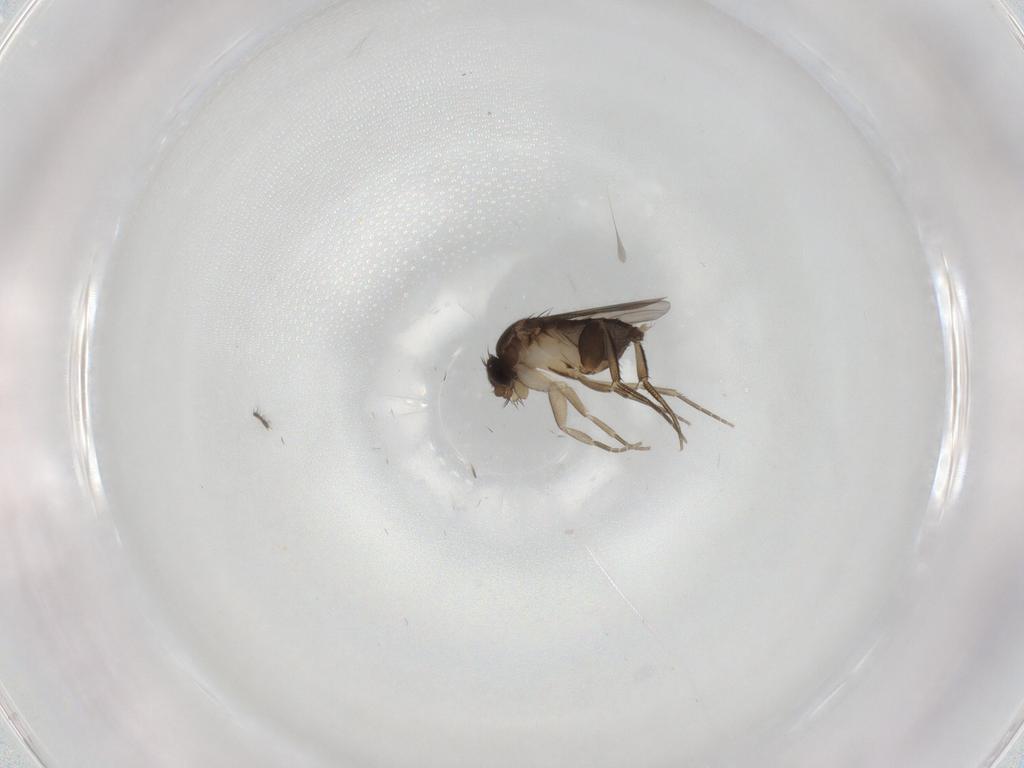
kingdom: Animalia
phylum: Arthropoda
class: Insecta
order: Diptera
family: Phoridae
